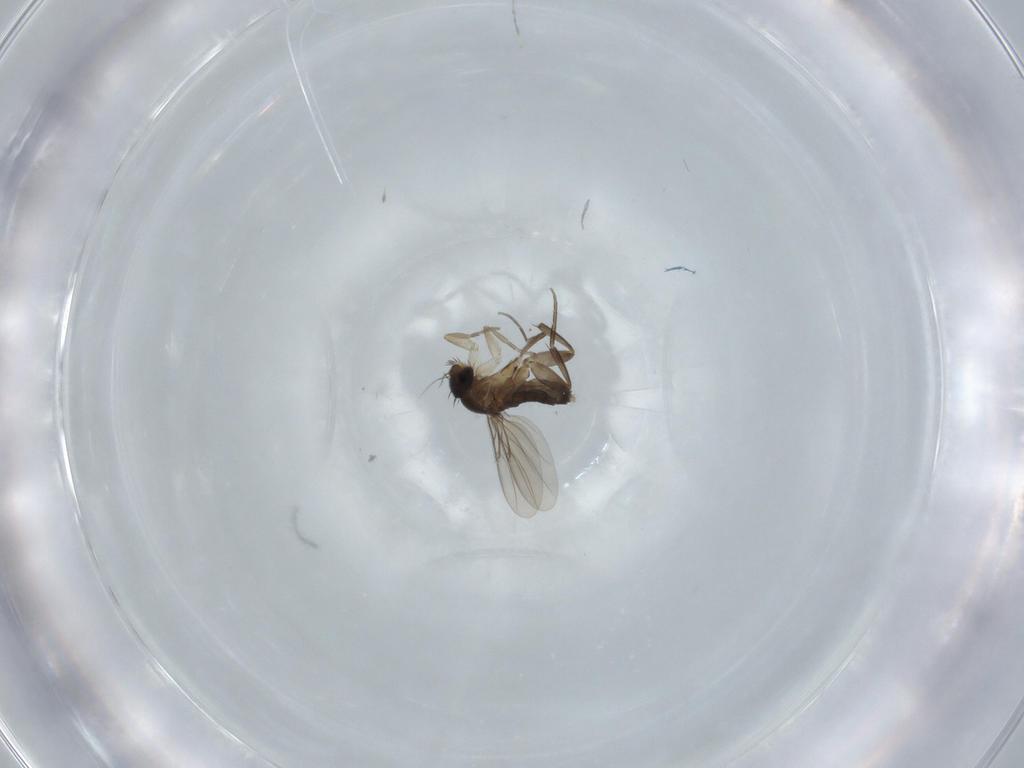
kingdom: Animalia
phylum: Arthropoda
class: Insecta
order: Diptera
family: Phoridae
